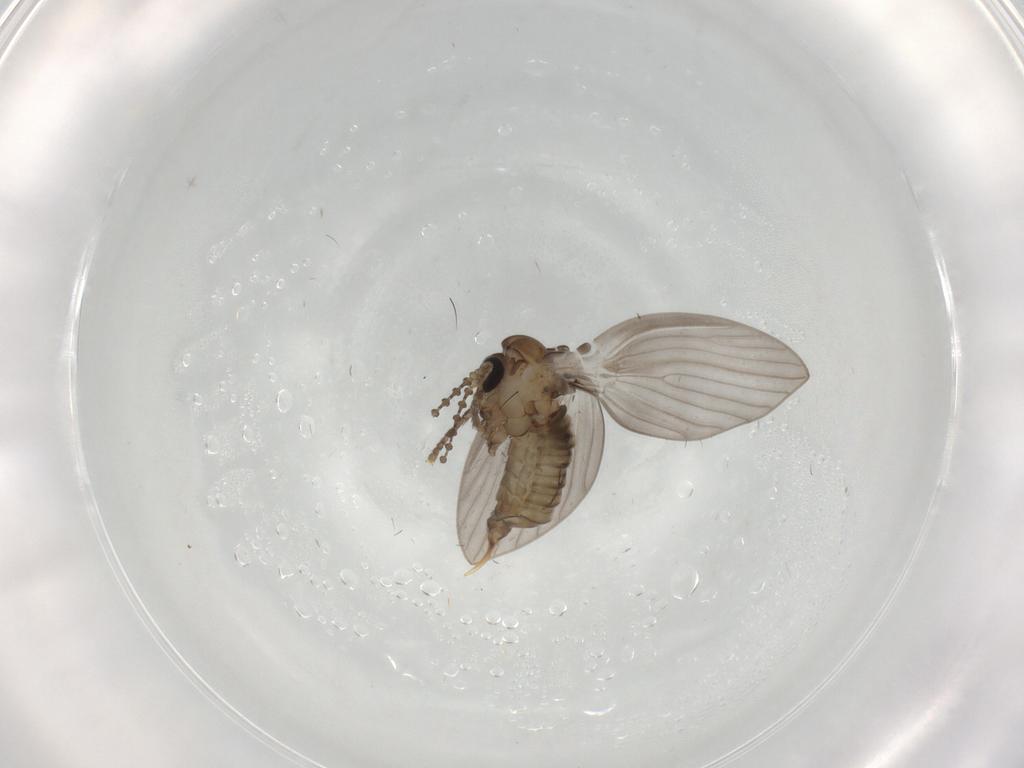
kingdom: Animalia
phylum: Arthropoda
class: Insecta
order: Diptera
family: Psychodidae
